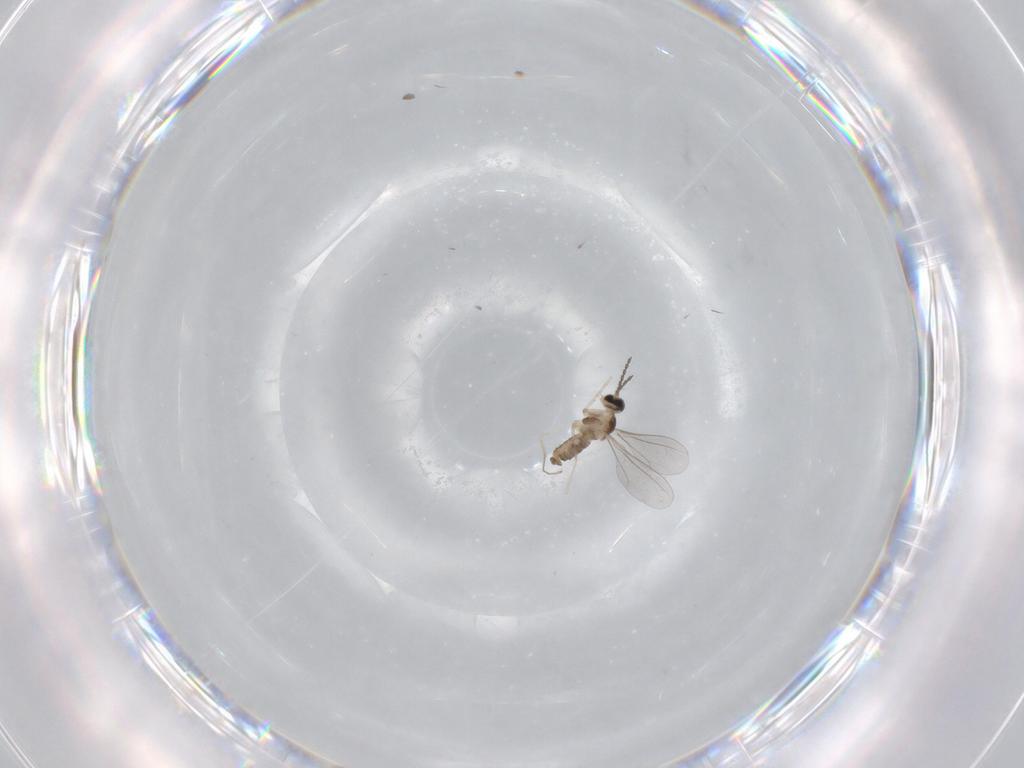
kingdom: Animalia
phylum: Arthropoda
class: Insecta
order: Diptera
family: Cecidomyiidae
